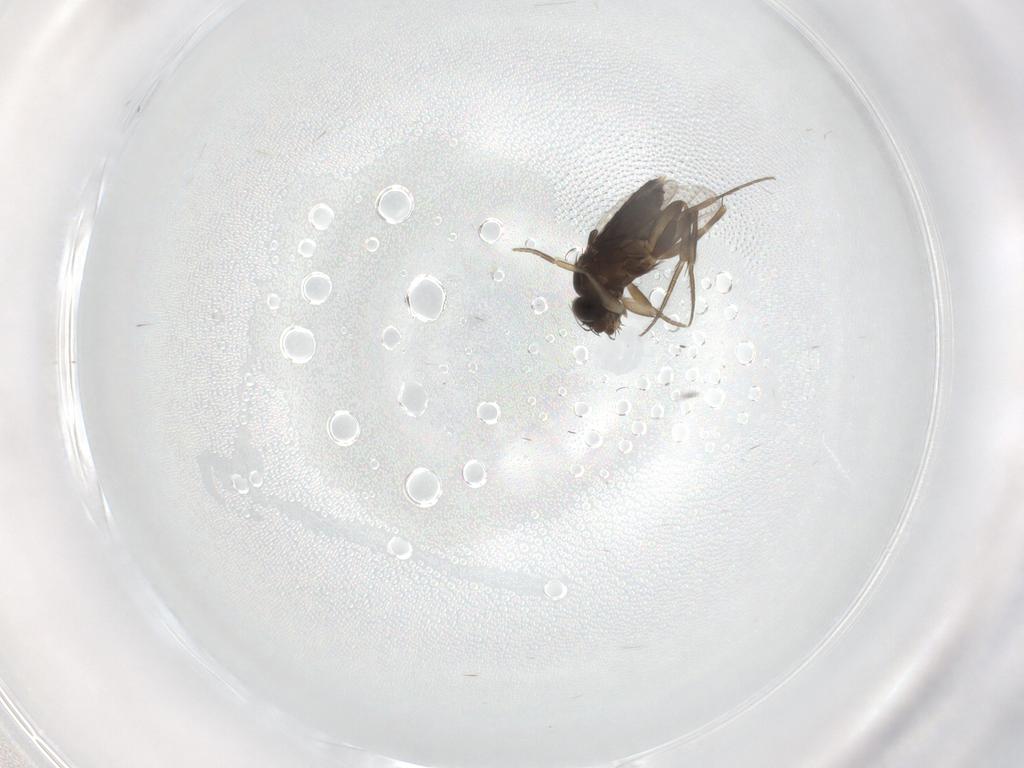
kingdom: Animalia
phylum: Arthropoda
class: Insecta
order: Diptera
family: Phoridae
